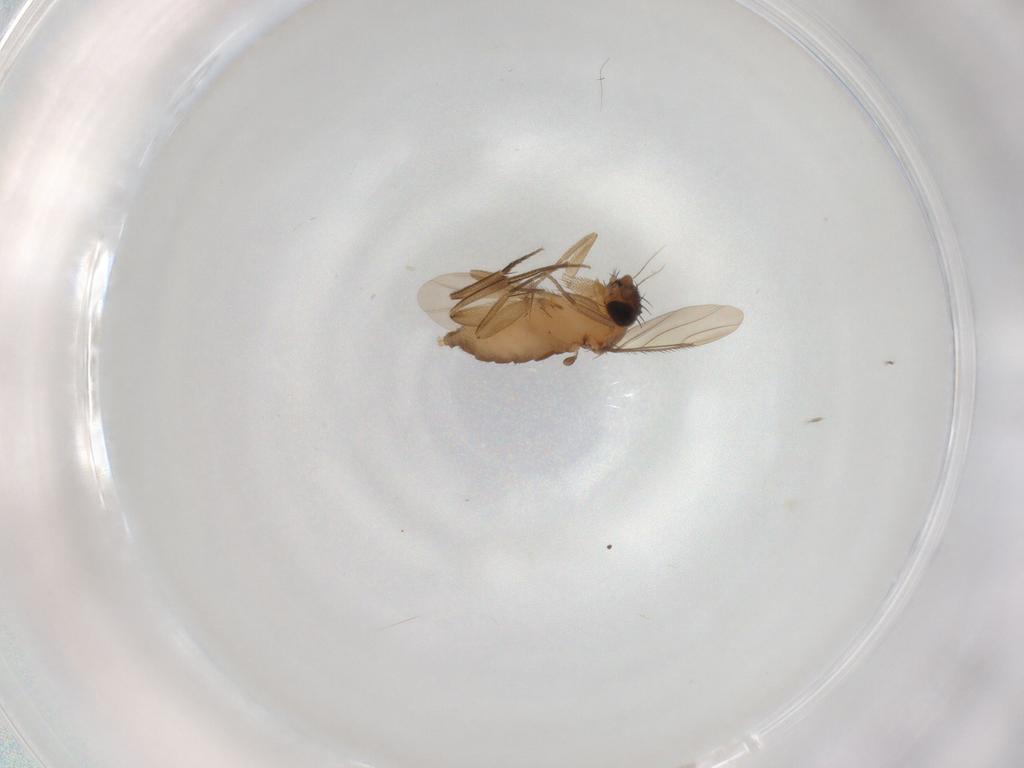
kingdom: Animalia
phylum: Arthropoda
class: Insecta
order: Diptera
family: Phoridae
